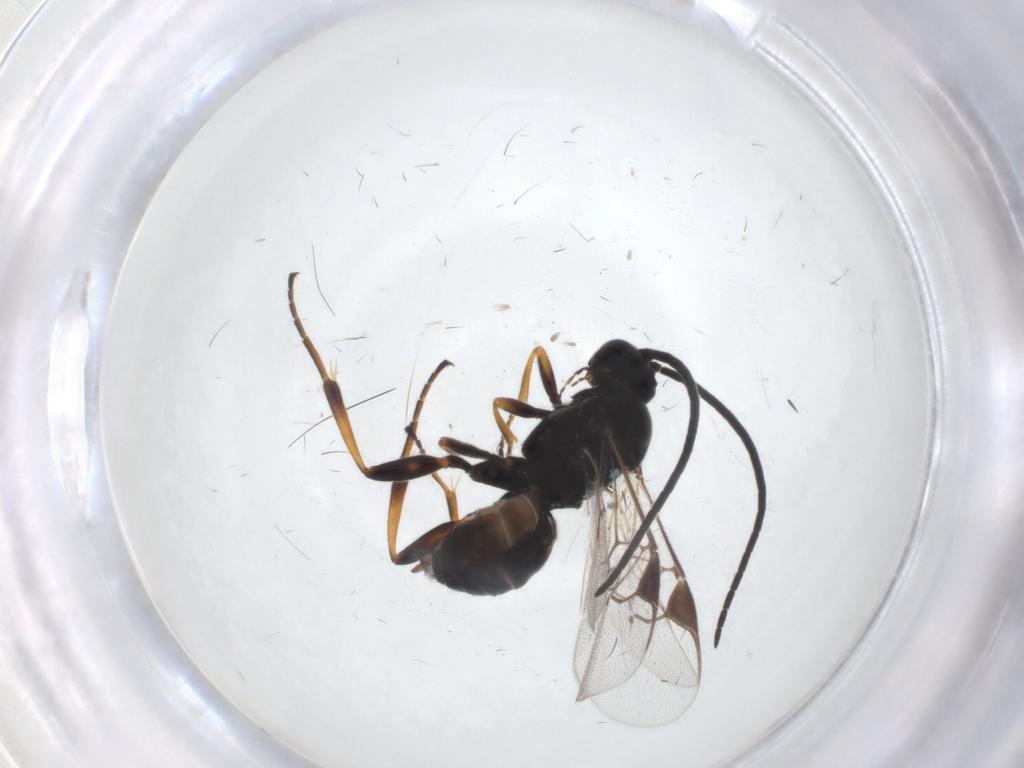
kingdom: Animalia
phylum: Arthropoda
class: Insecta
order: Hymenoptera
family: Braconidae
